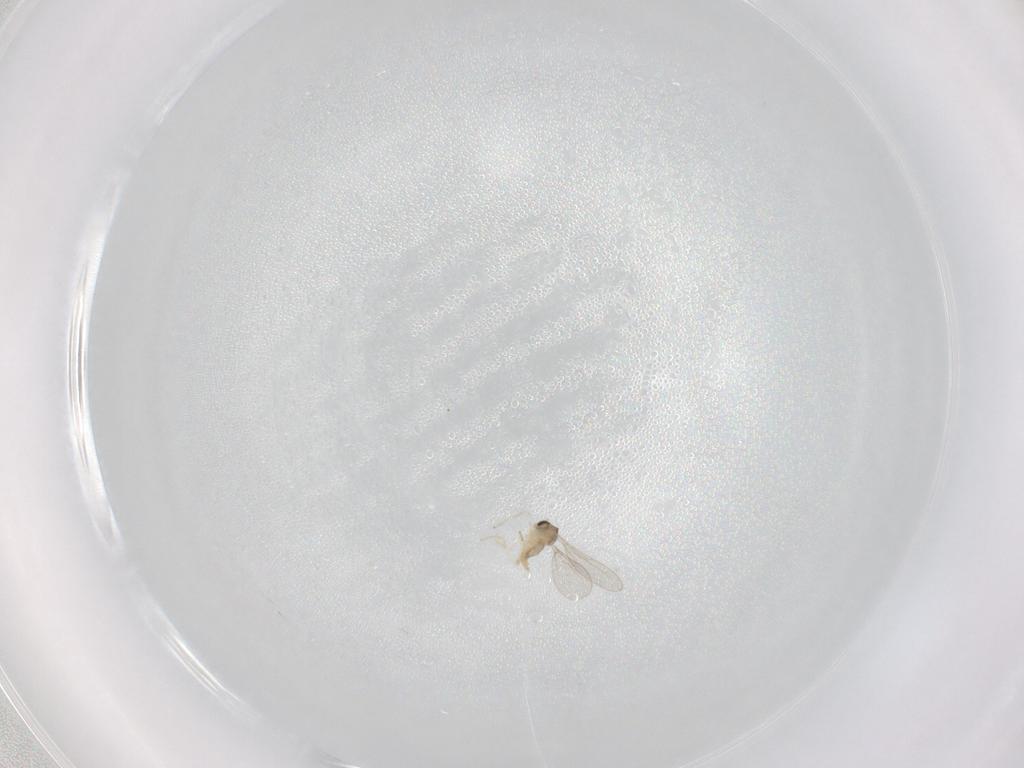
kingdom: Animalia
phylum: Arthropoda
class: Insecta
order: Diptera
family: Cecidomyiidae
